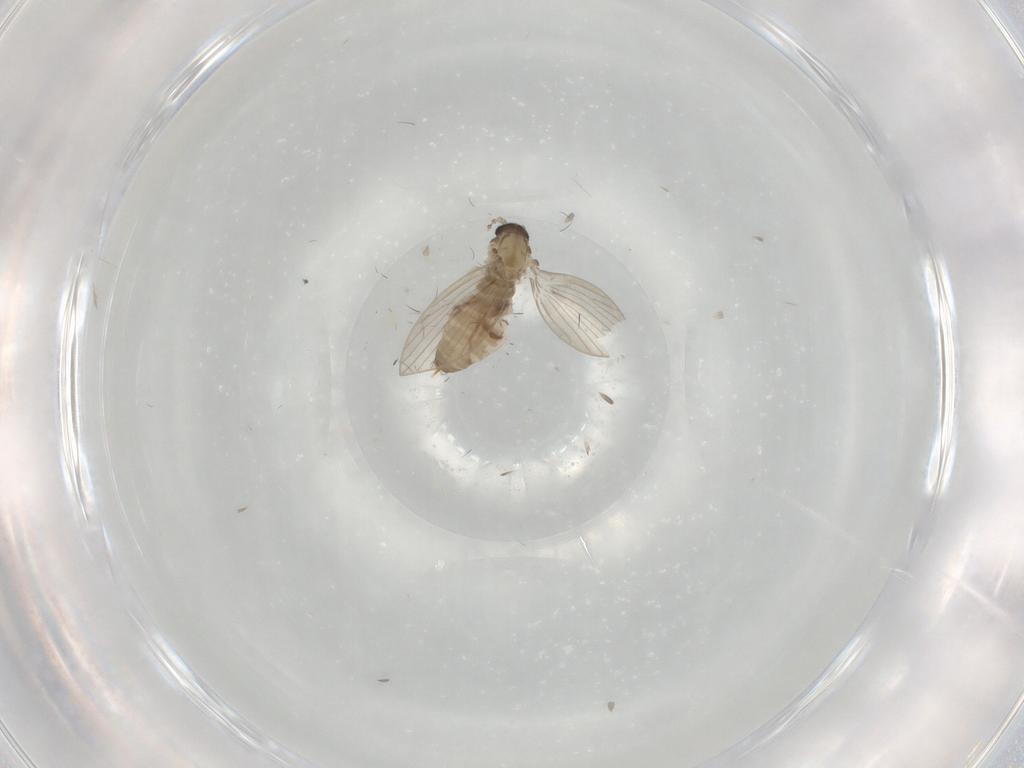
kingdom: Animalia
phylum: Arthropoda
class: Insecta
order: Diptera
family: Psychodidae
